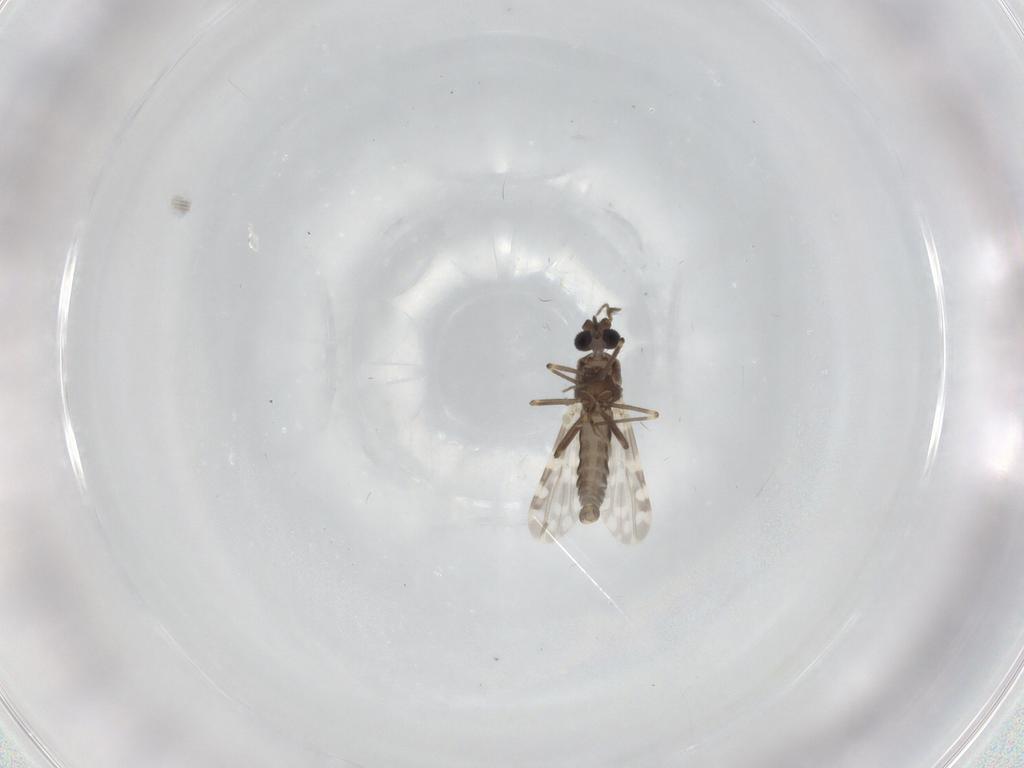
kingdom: Animalia
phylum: Arthropoda
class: Insecta
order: Diptera
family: Ceratopogonidae
